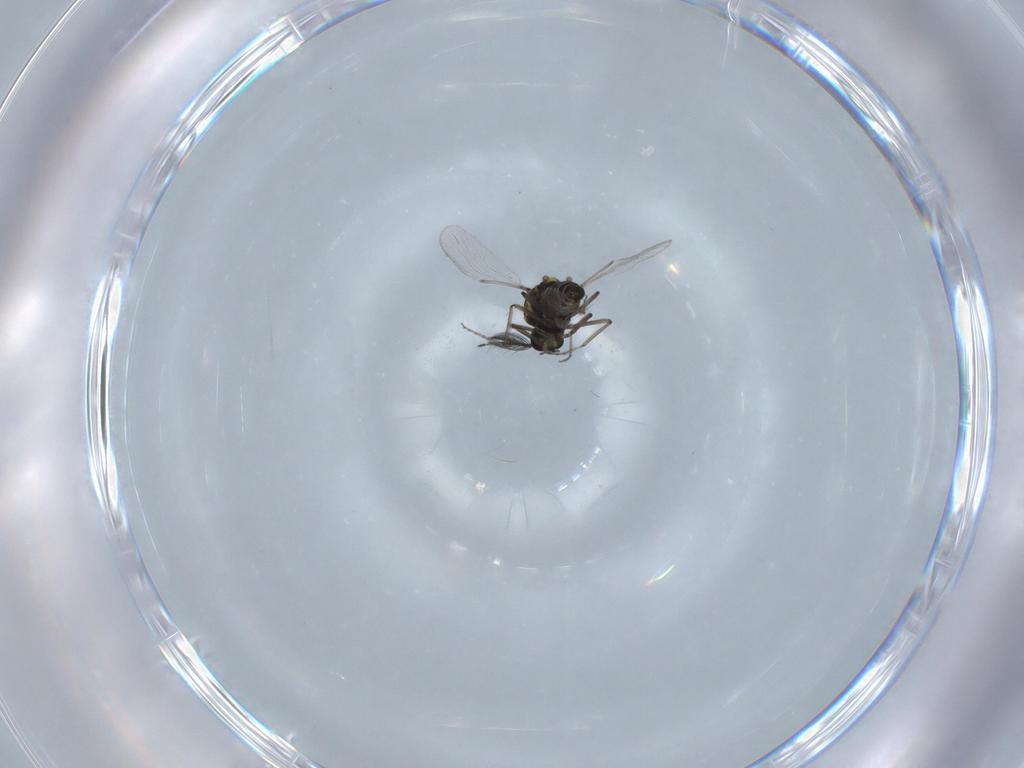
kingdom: Animalia
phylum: Arthropoda
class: Insecta
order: Diptera
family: Ceratopogonidae
